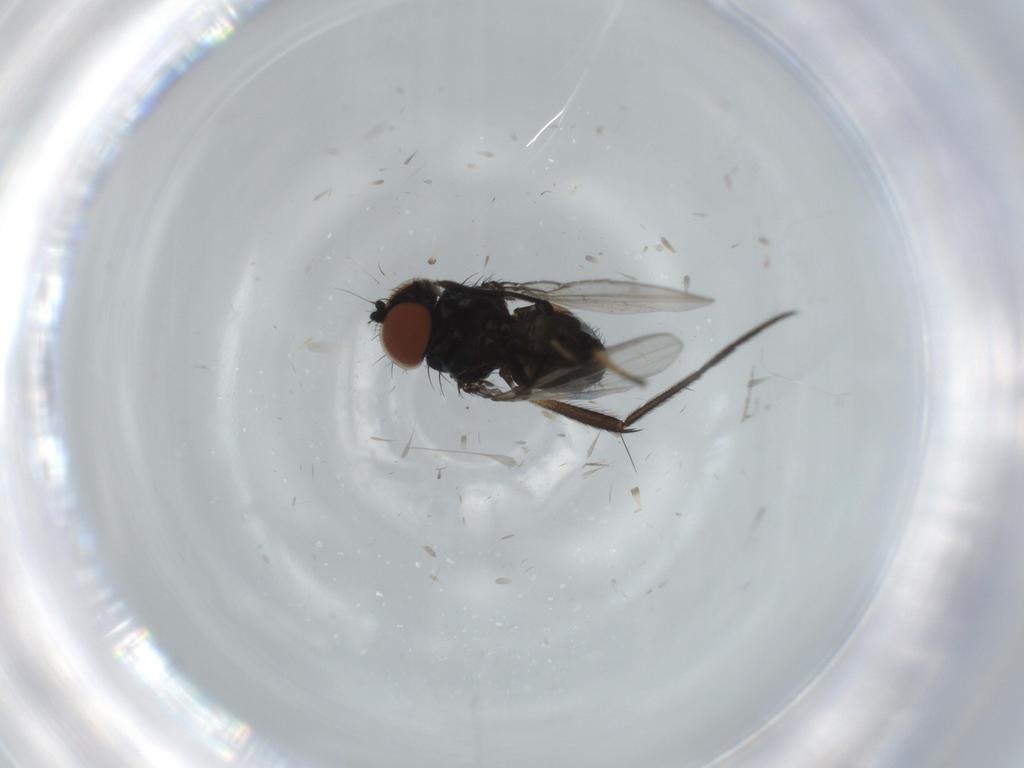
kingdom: Animalia
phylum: Arthropoda
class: Insecta
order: Diptera
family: Milichiidae
